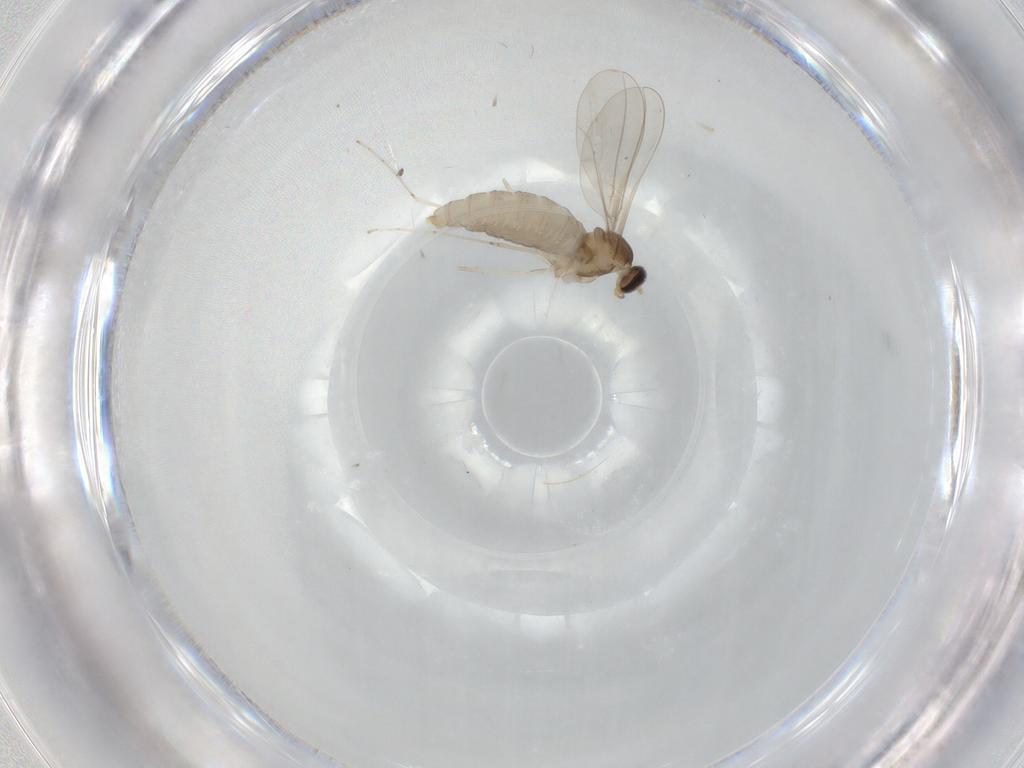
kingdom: Animalia
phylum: Arthropoda
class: Insecta
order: Diptera
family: Cecidomyiidae
